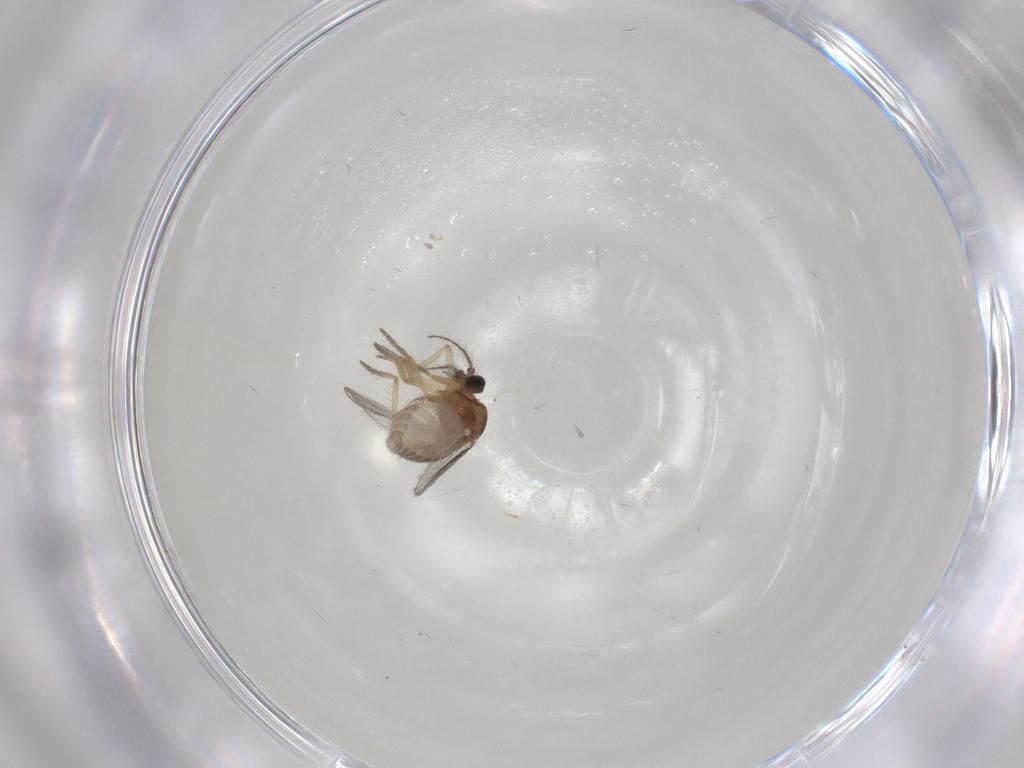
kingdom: Animalia
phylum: Arthropoda
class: Insecta
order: Diptera
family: Ceratopogonidae
